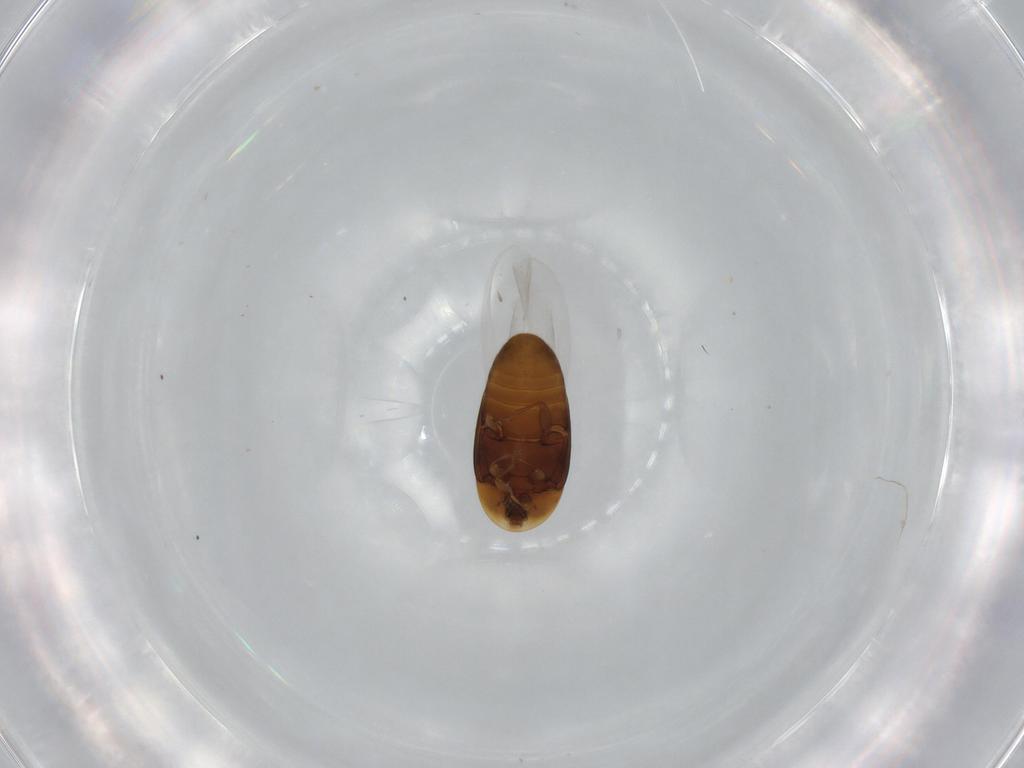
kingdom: Animalia
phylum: Arthropoda
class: Insecta
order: Coleoptera
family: Corylophidae
